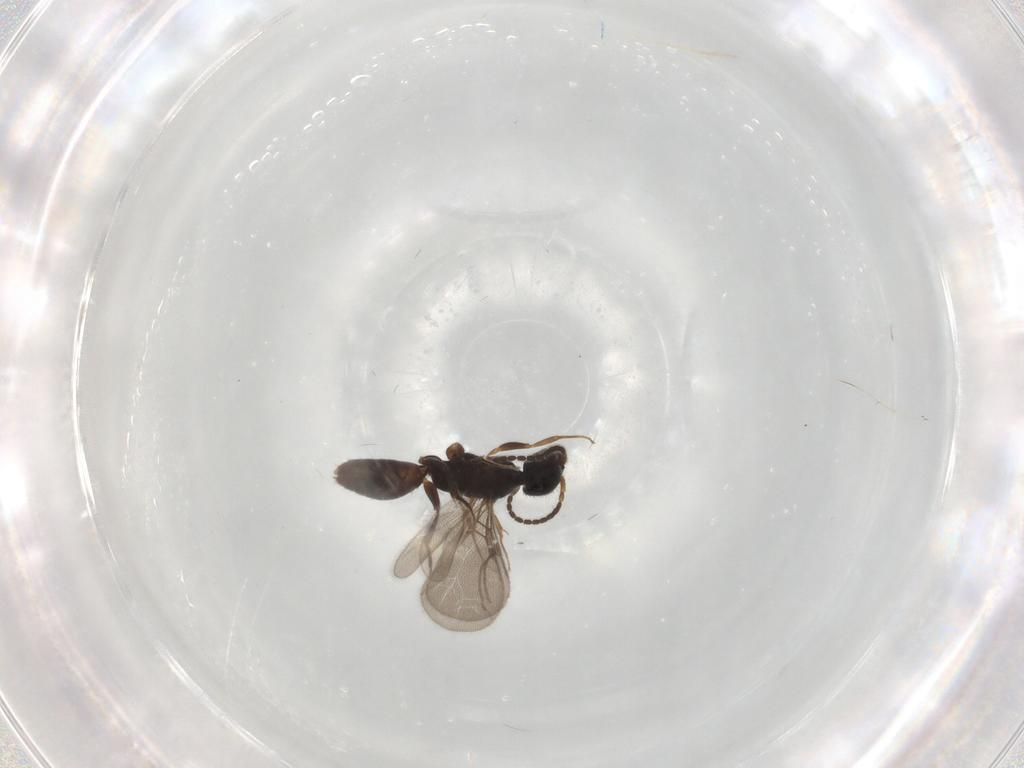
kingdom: Animalia
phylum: Arthropoda
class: Insecta
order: Hymenoptera
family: Bethylidae
